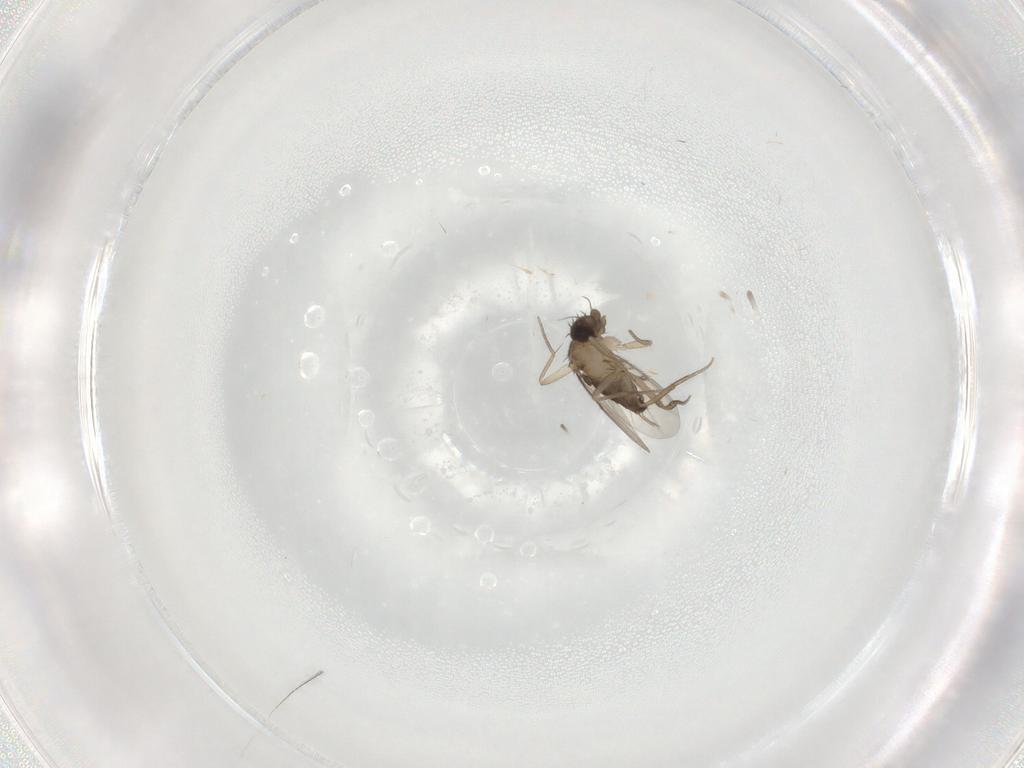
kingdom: Animalia
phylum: Arthropoda
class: Insecta
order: Diptera
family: Phoridae
